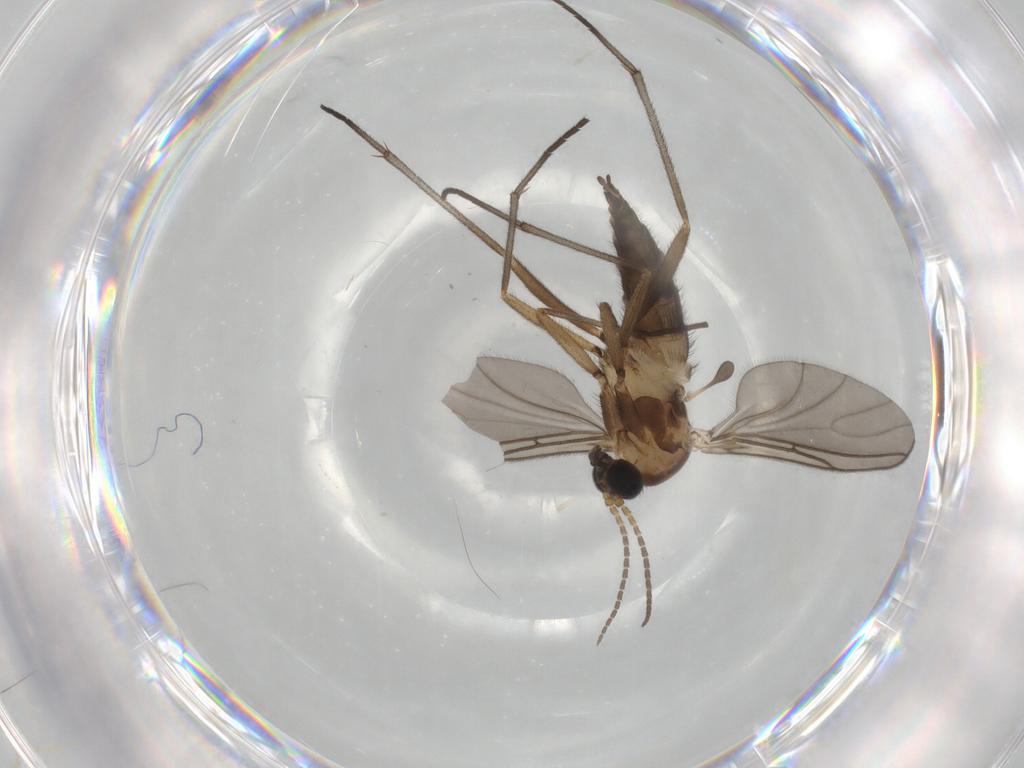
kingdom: Animalia
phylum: Arthropoda
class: Insecta
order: Diptera
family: Sciaridae
